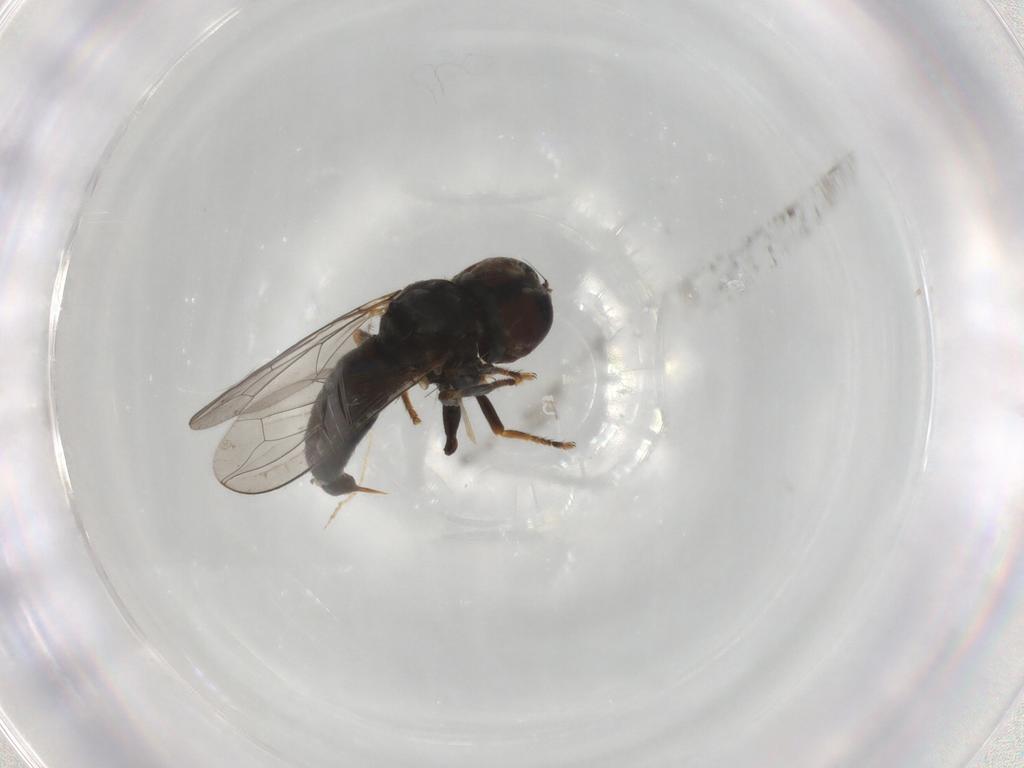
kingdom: Animalia
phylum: Arthropoda
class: Insecta
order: Diptera
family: Pipunculidae
